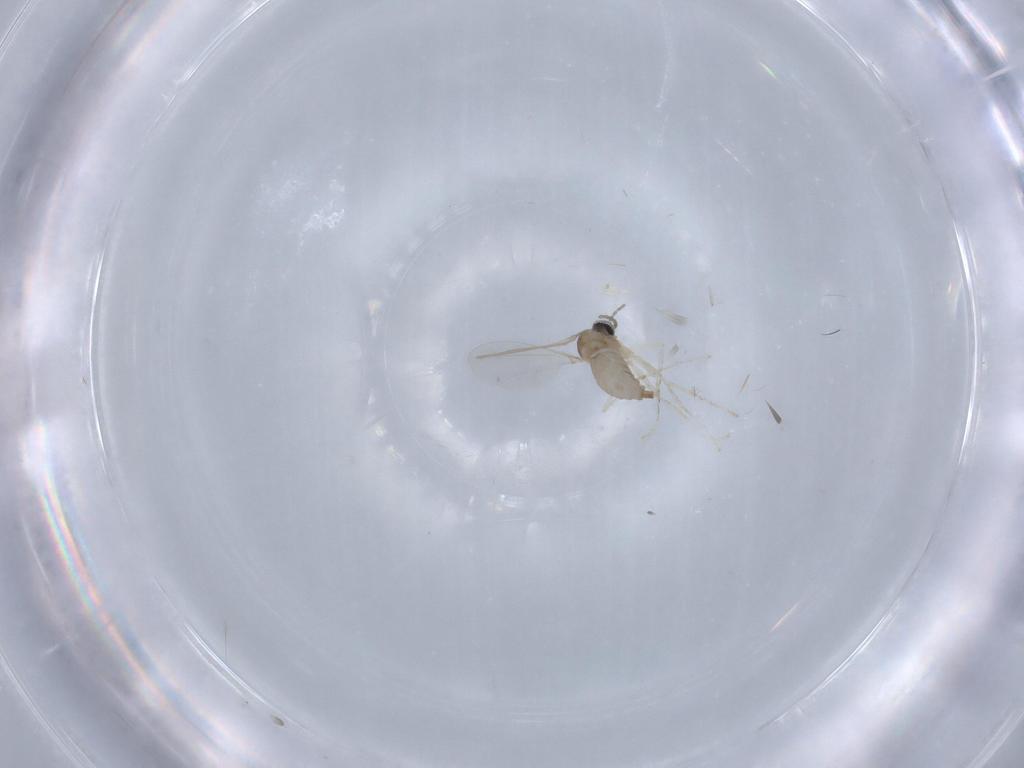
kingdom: Animalia
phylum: Arthropoda
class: Insecta
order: Diptera
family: Cecidomyiidae
